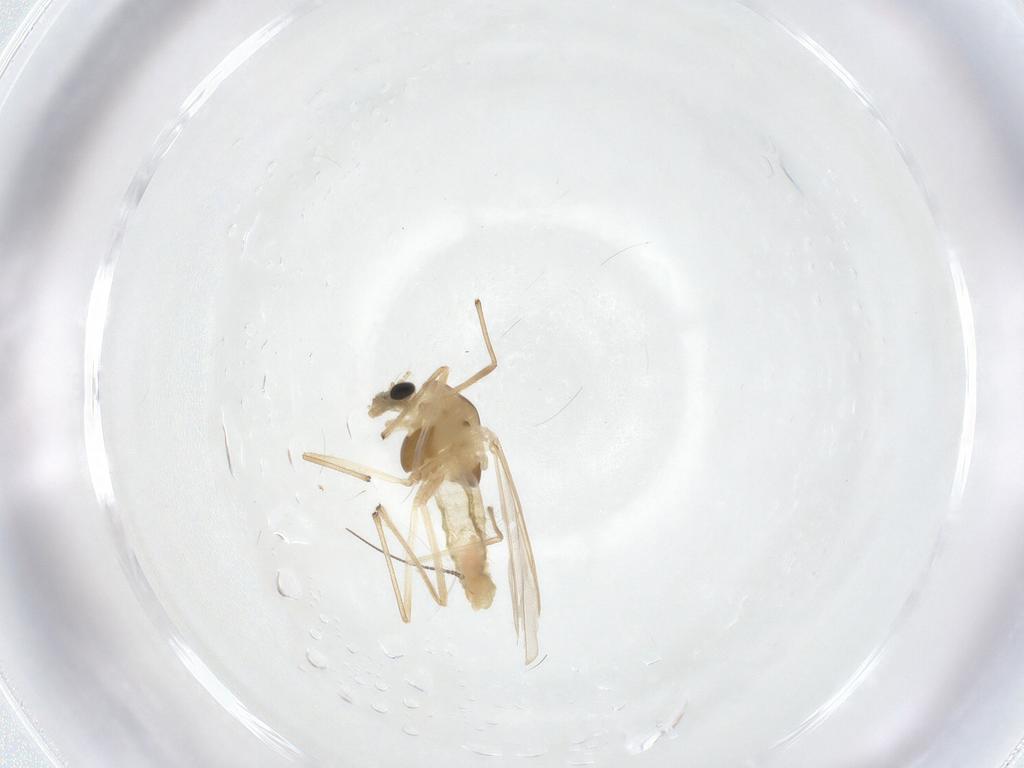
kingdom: Animalia
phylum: Arthropoda
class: Insecta
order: Diptera
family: Chironomidae
